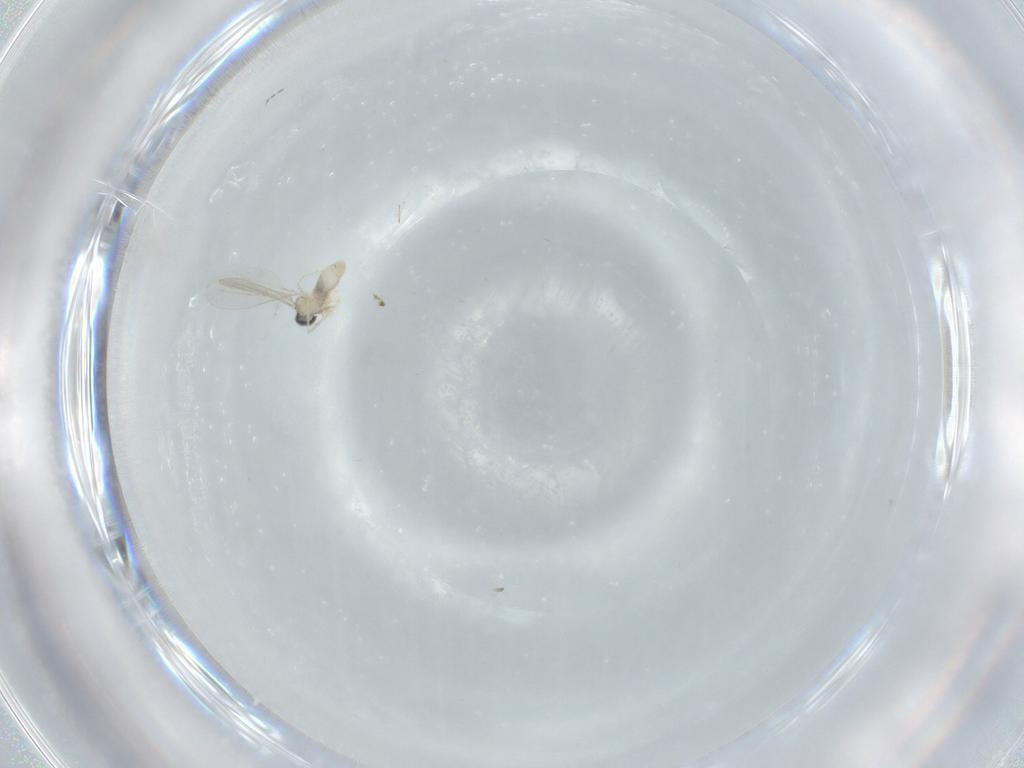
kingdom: Animalia
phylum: Arthropoda
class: Insecta
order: Diptera
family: Cecidomyiidae
